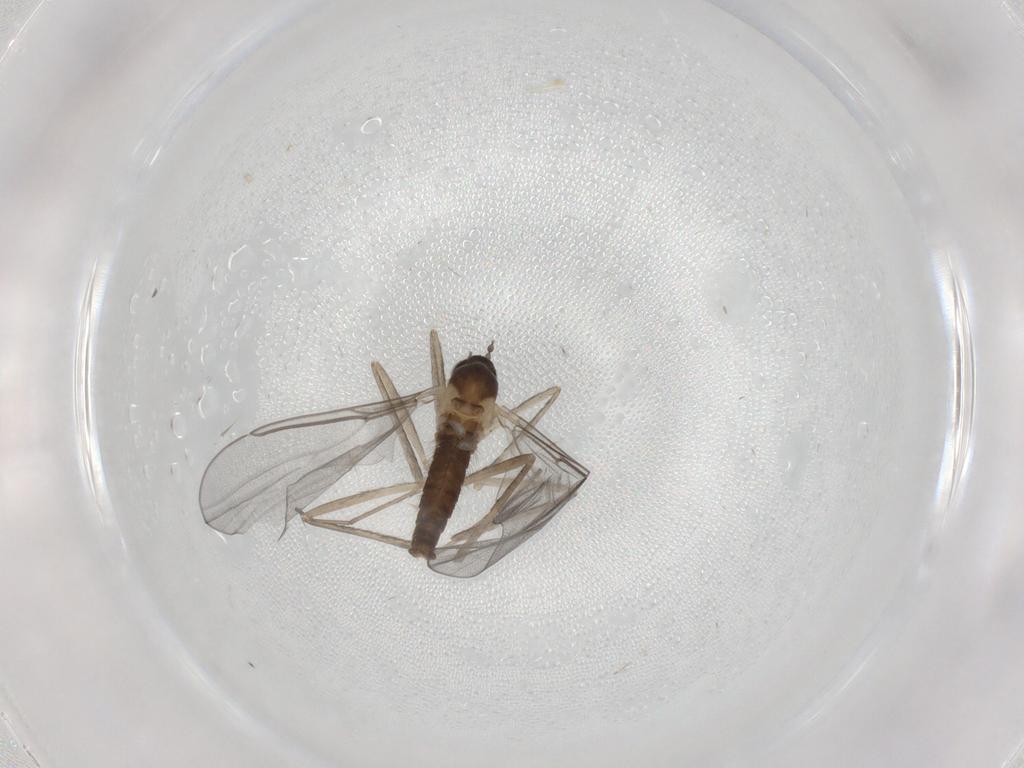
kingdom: Animalia
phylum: Arthropoda
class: Insecta
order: Diptera
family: Cecidomyiidae
